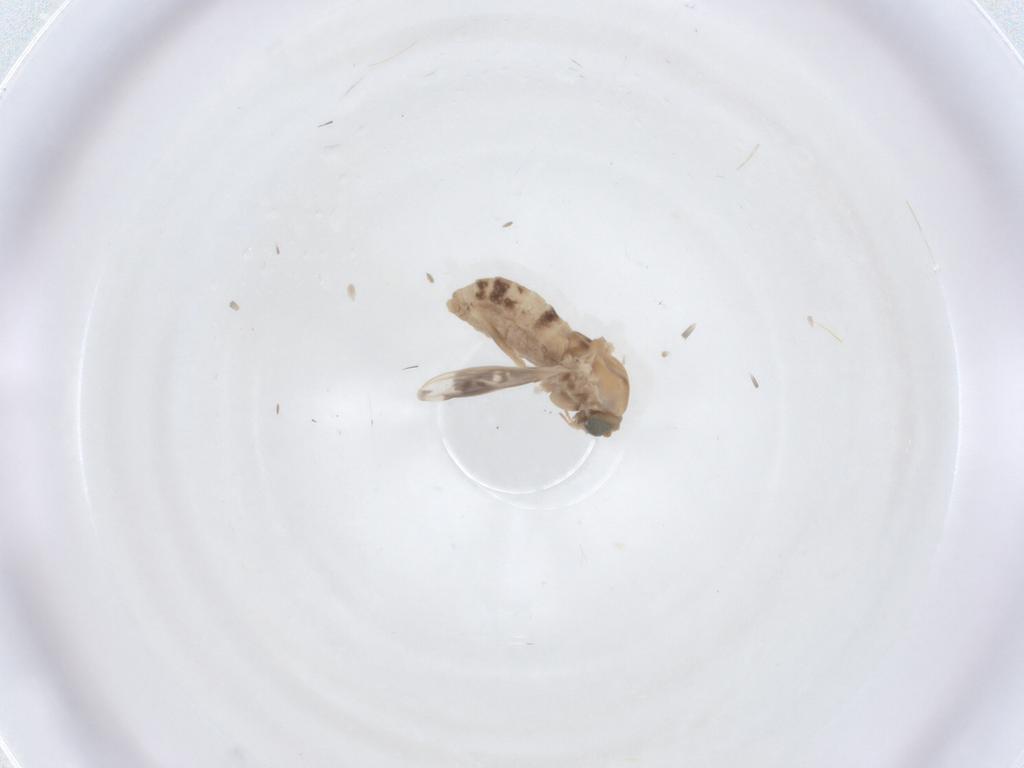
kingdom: Animalia
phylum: Arthropoda
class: Insecta
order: Diptera
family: Chironomidae
